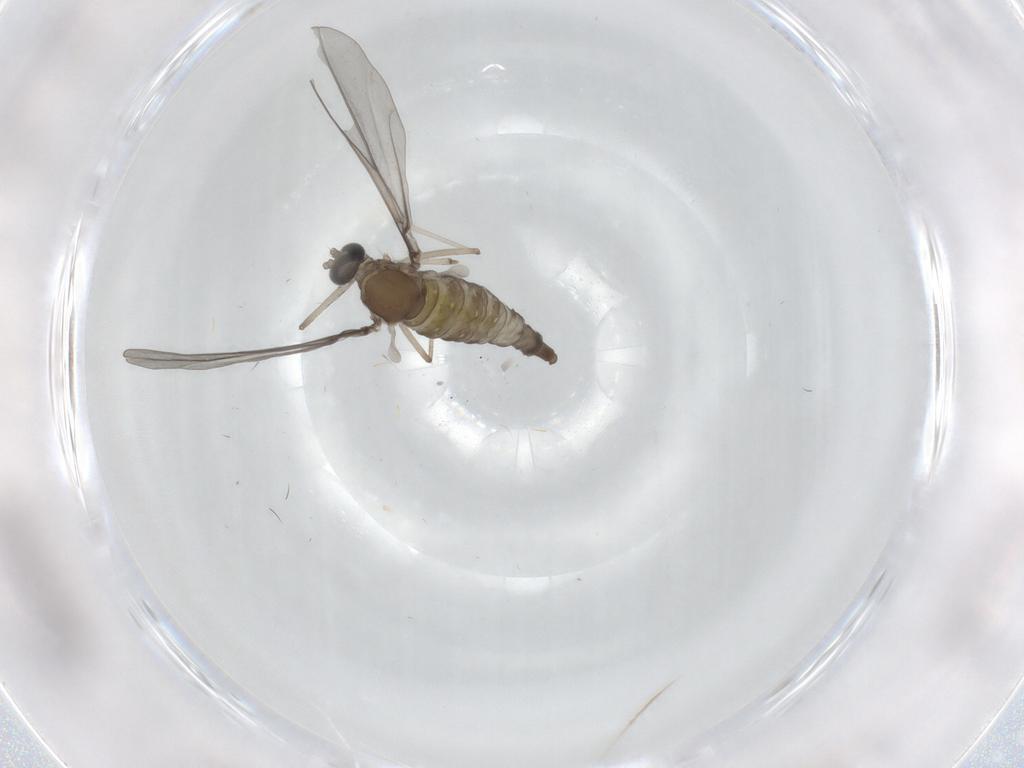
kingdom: Animalia
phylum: Arthropoda
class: Insecta
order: Diptera
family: Cecidomyiidae
